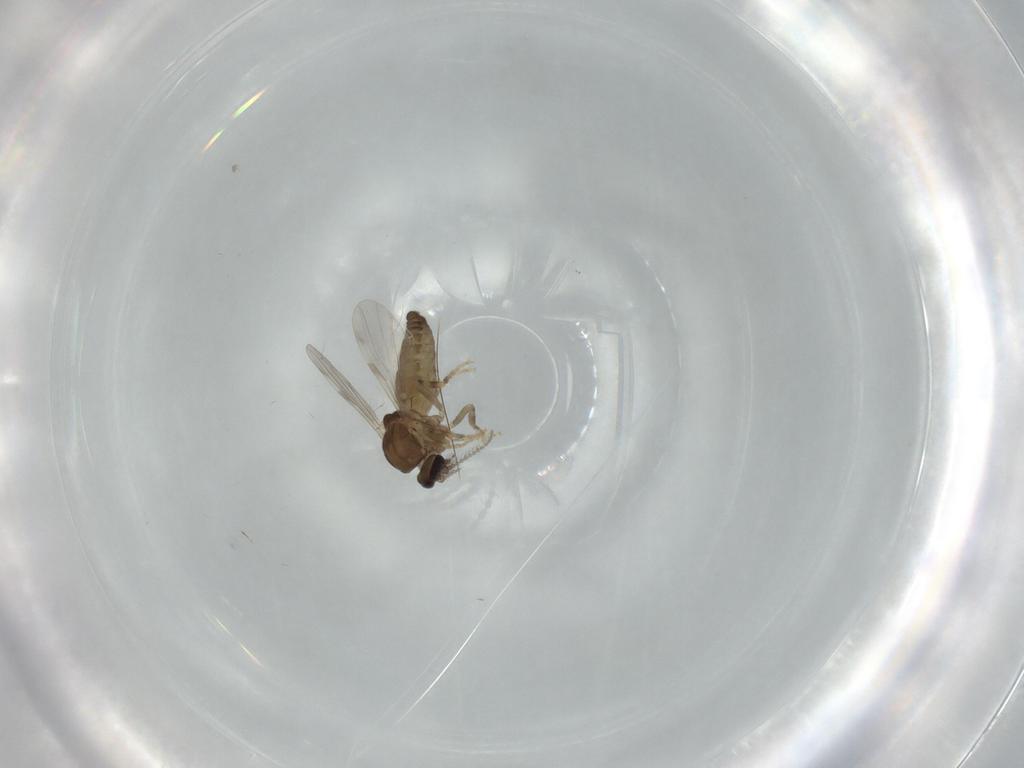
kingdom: Animalia
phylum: Arthropoda
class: Insecta
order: Diptera
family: Ceratopogonidae
